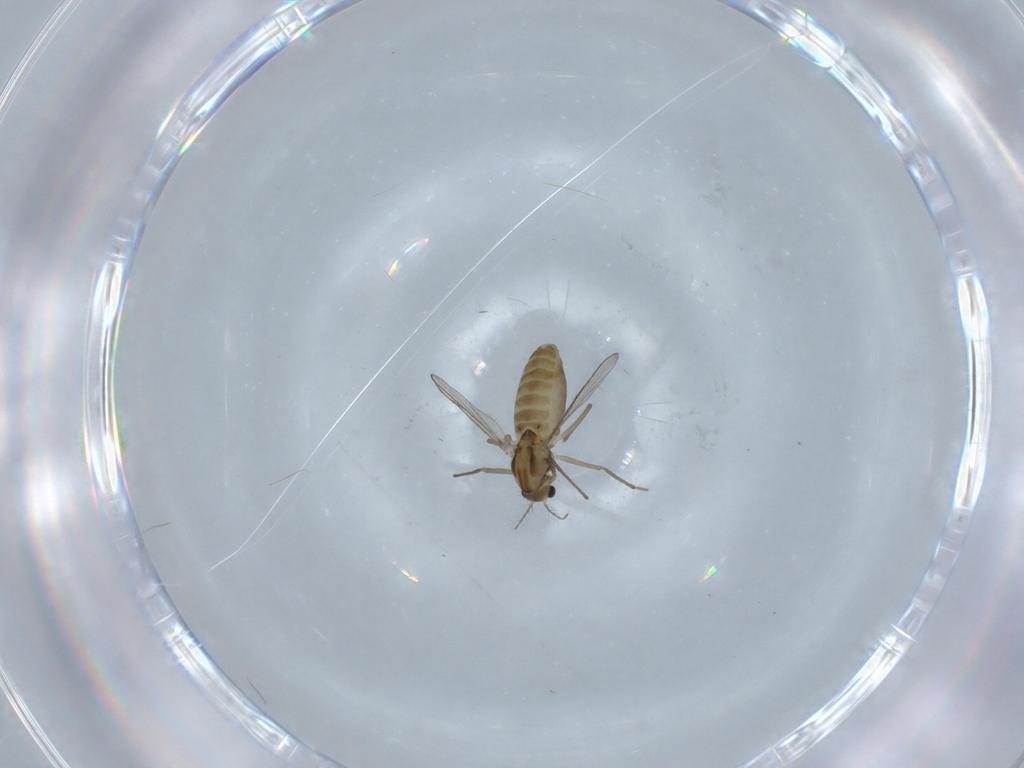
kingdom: Animalia
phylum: Arthropoda
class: Insecta
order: Diptera
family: Chironomidae
